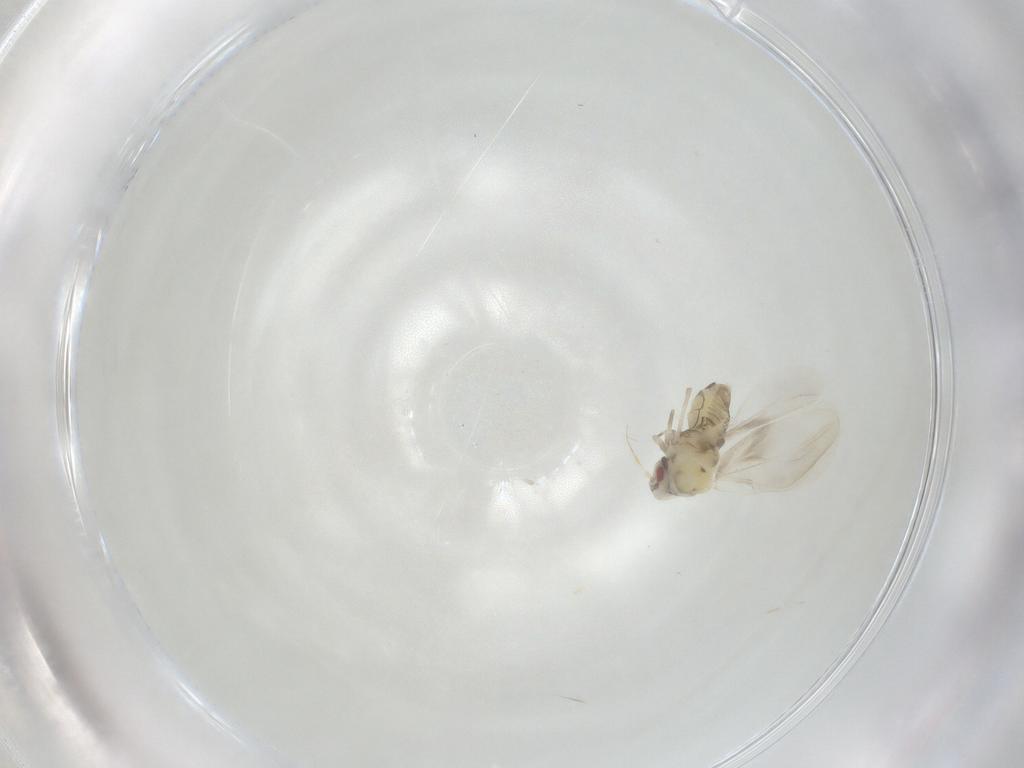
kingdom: Animalia
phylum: Arthropoda
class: Insecta
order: Hemiptera
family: Aleyrodidae
